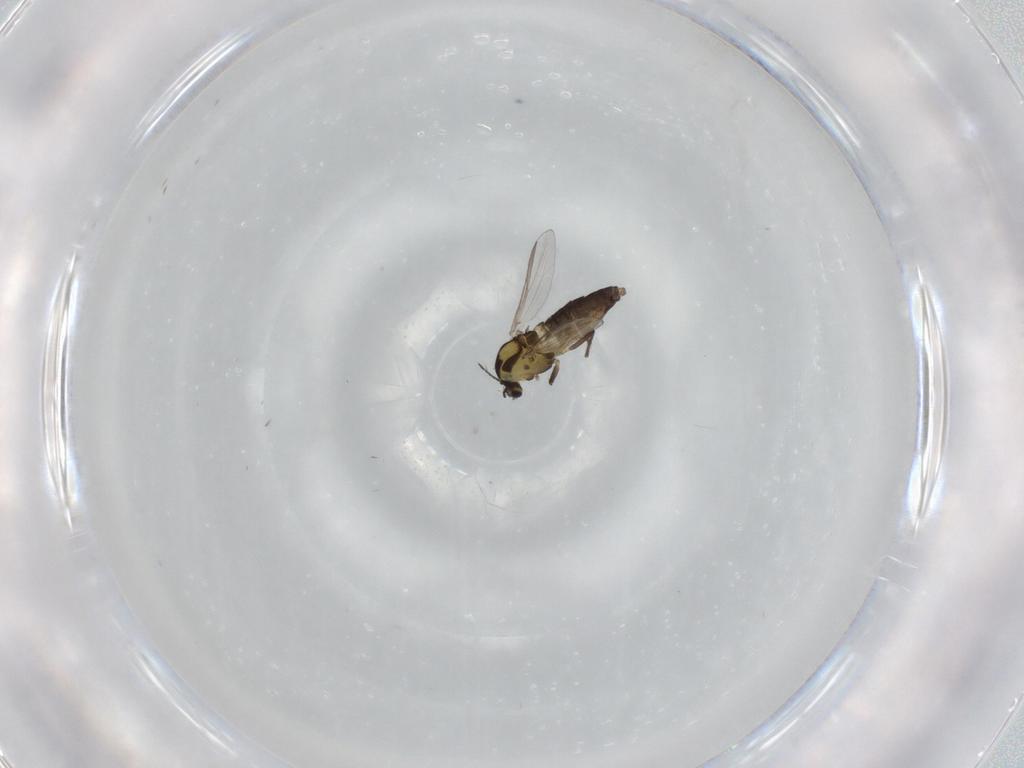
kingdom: Animalia
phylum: Arthropoda
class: Insecta
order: Diptera
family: Chironomidae
